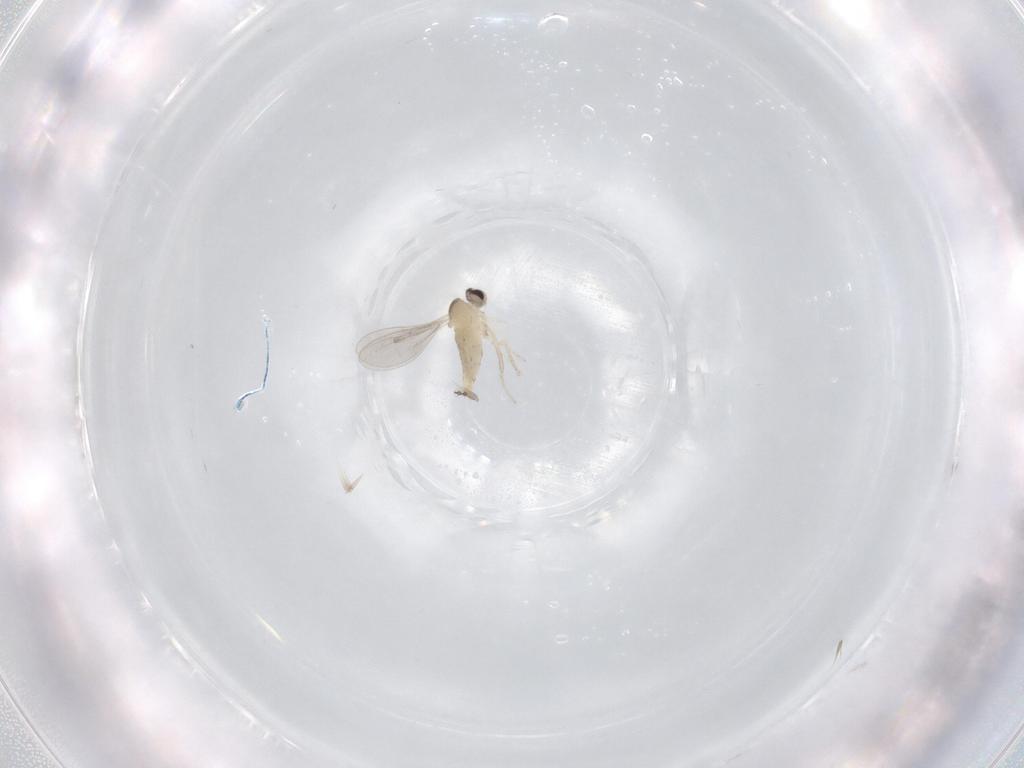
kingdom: Animalia
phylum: Arthropoda
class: Insecta
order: Diptera
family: Cecidomyiidae
